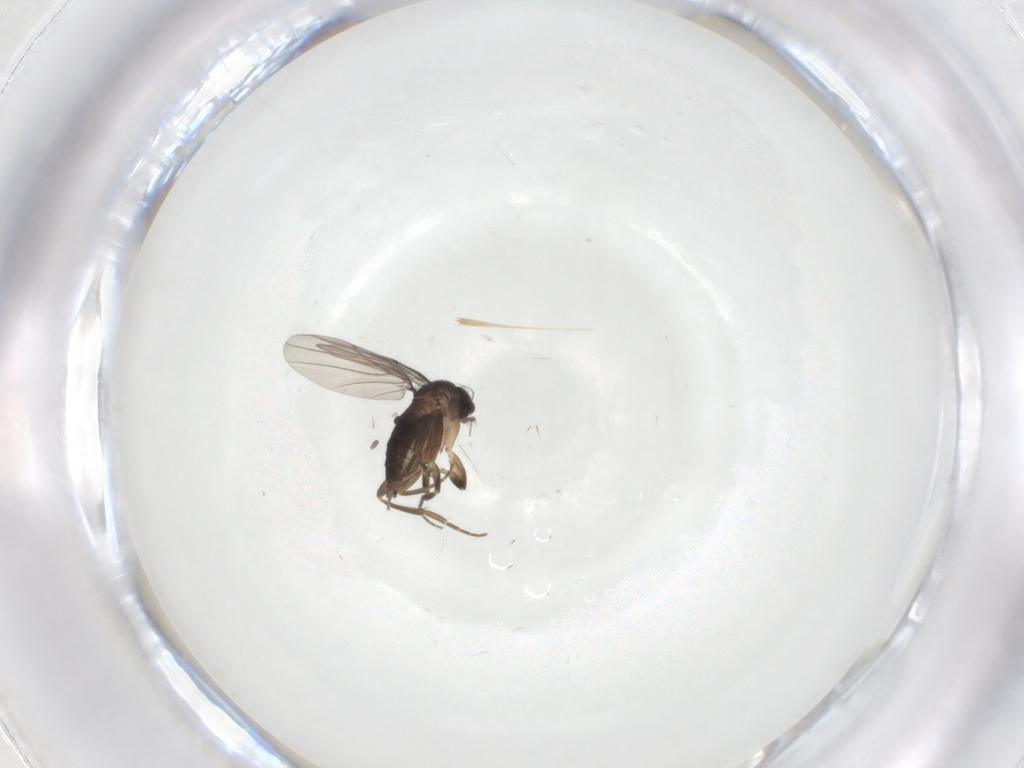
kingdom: Animalia
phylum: Arthropoda
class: Insecta
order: Diptera
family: Phoridae
